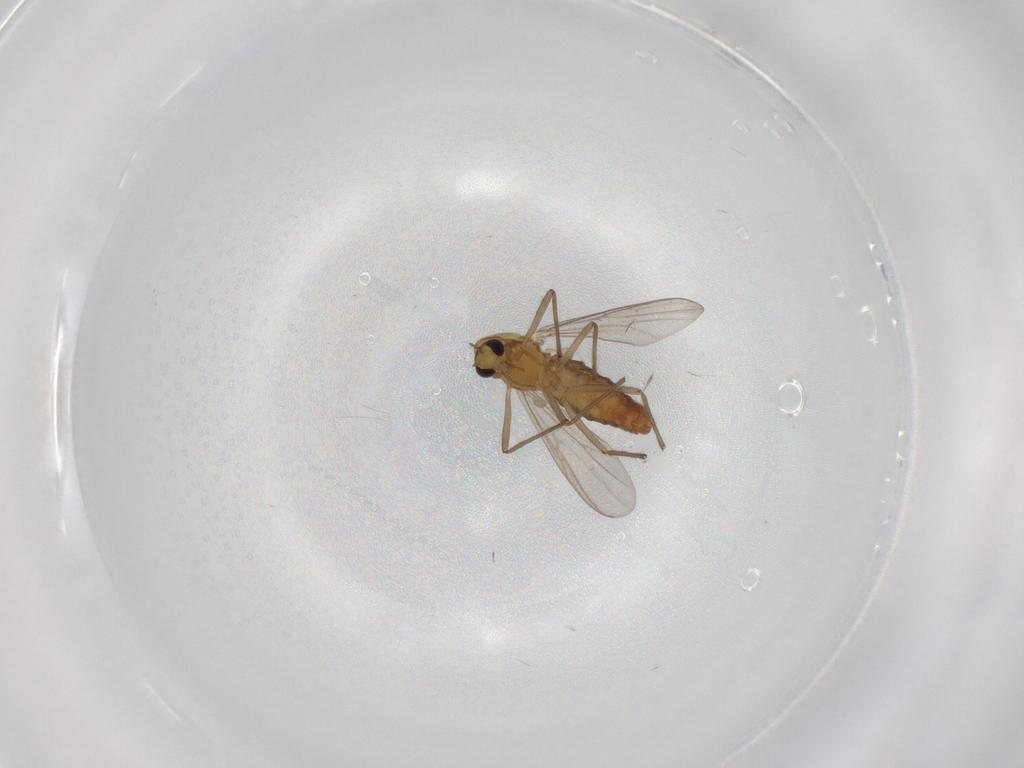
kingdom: Animalia
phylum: Arthropoda
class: Insecta
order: Diptera
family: Chironomidae
